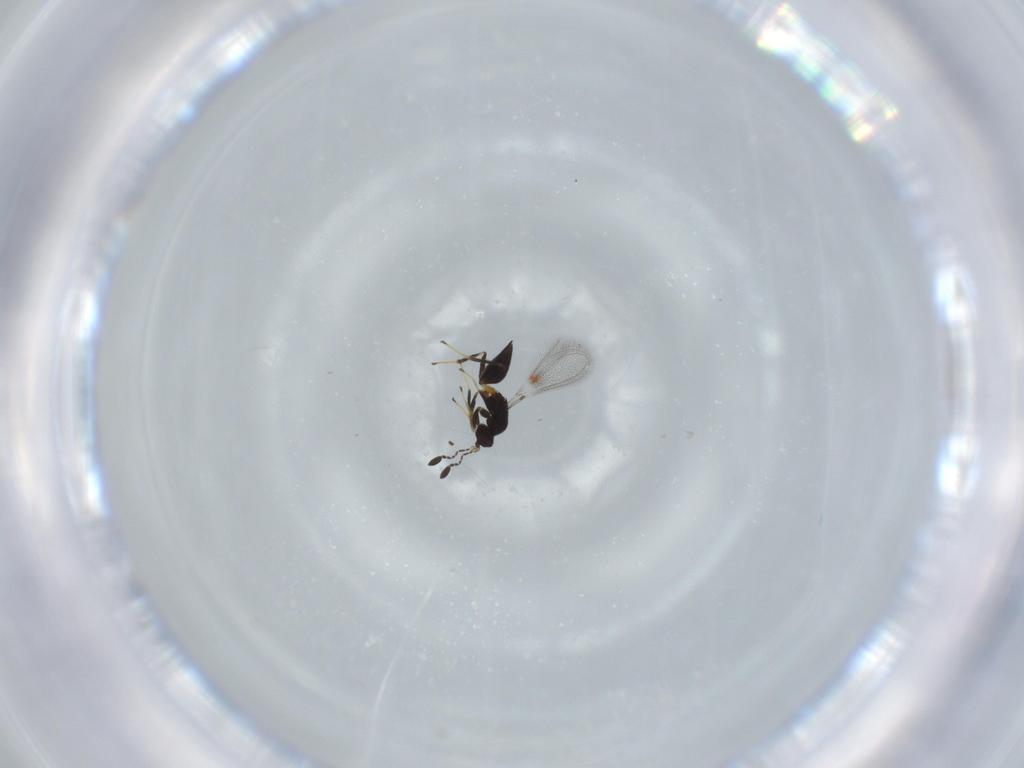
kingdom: Animalia
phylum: Arthropoda
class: Insecta
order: Hymenoptera
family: Mymaridae
